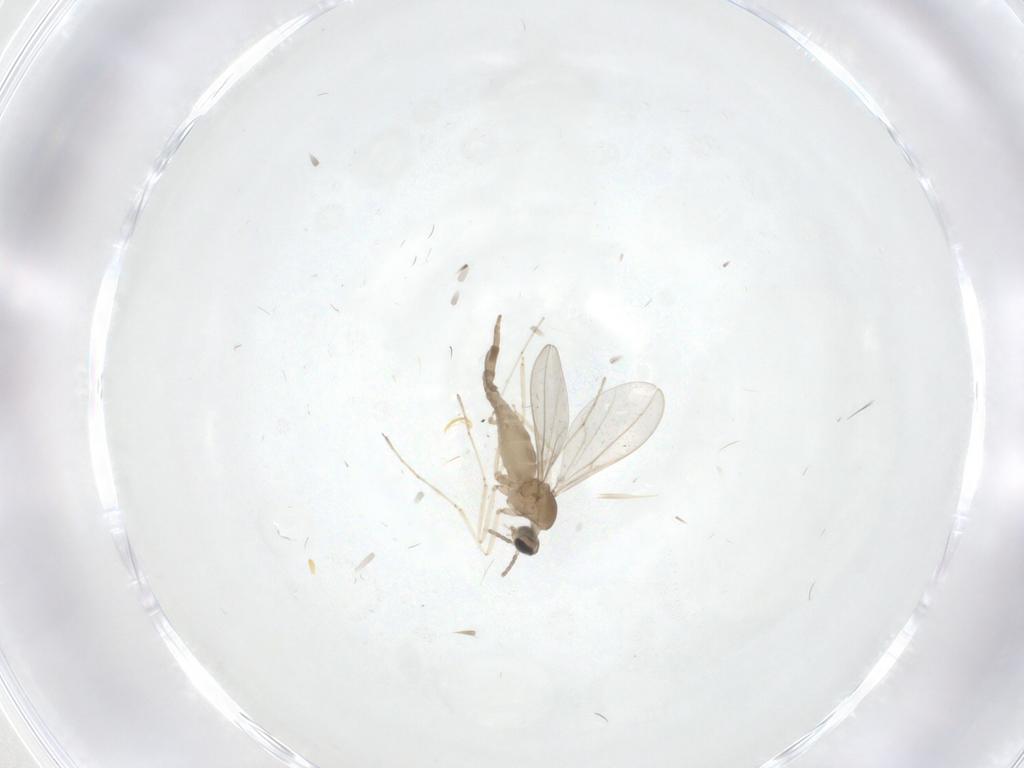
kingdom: Animalia
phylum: Arthropoda
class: Insecta
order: Diptera
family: Cecidomyiidae
